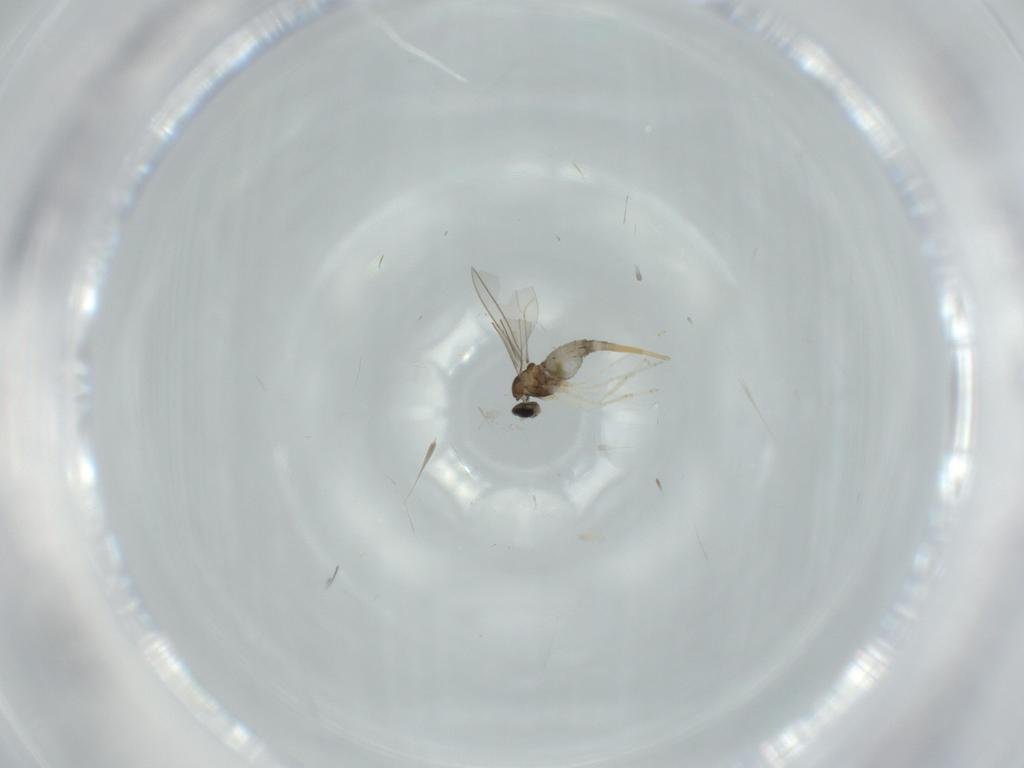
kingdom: Animalia
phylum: Arthropoda
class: Insecta
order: Diptera
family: Cecidomyiidae
